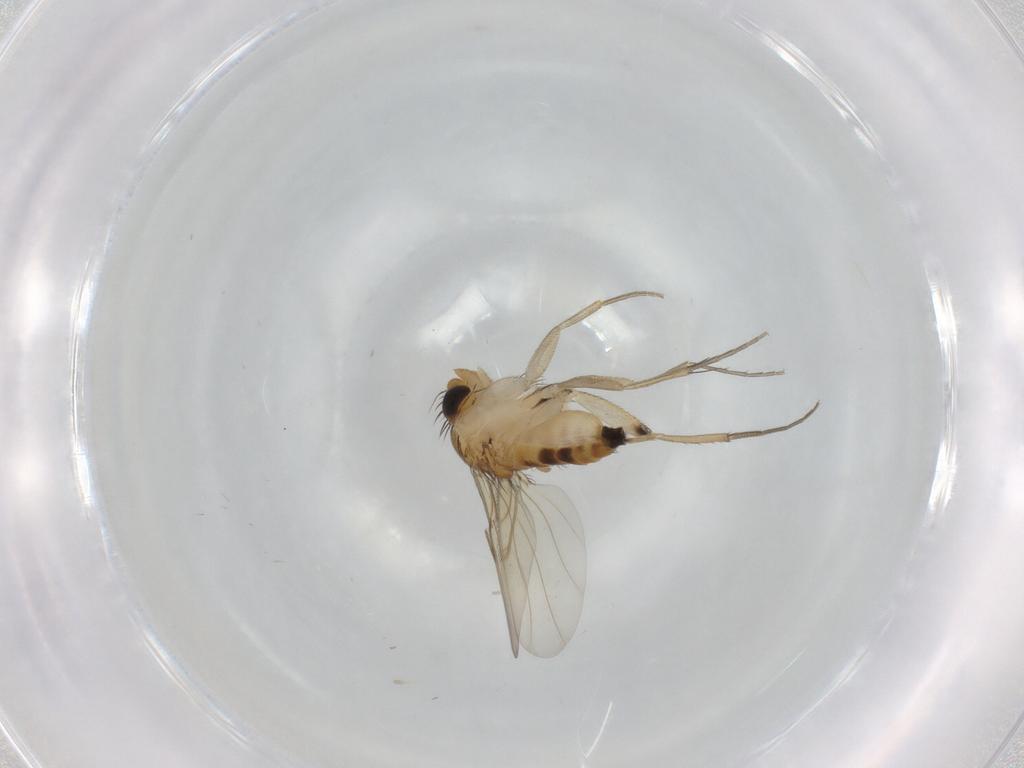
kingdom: Animalia
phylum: Arthropoda
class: Insecta
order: Diptera
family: Phoridae
